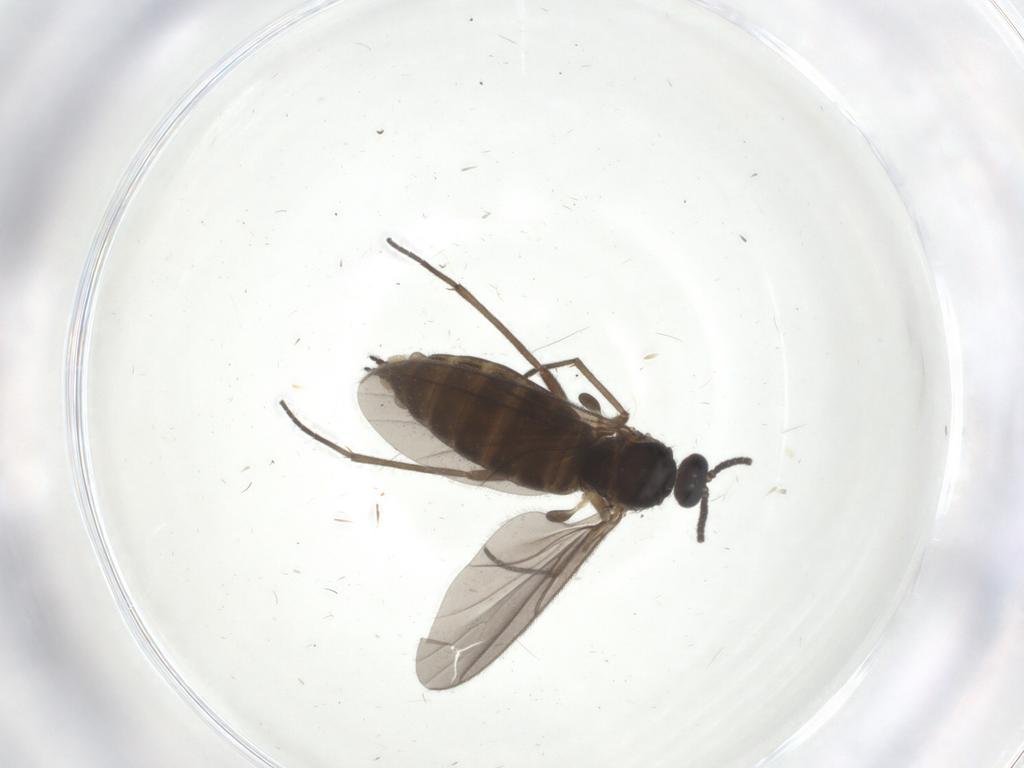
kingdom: Animalia
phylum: Arthropoda
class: Insecta
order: Diptera
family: Sciaridae
